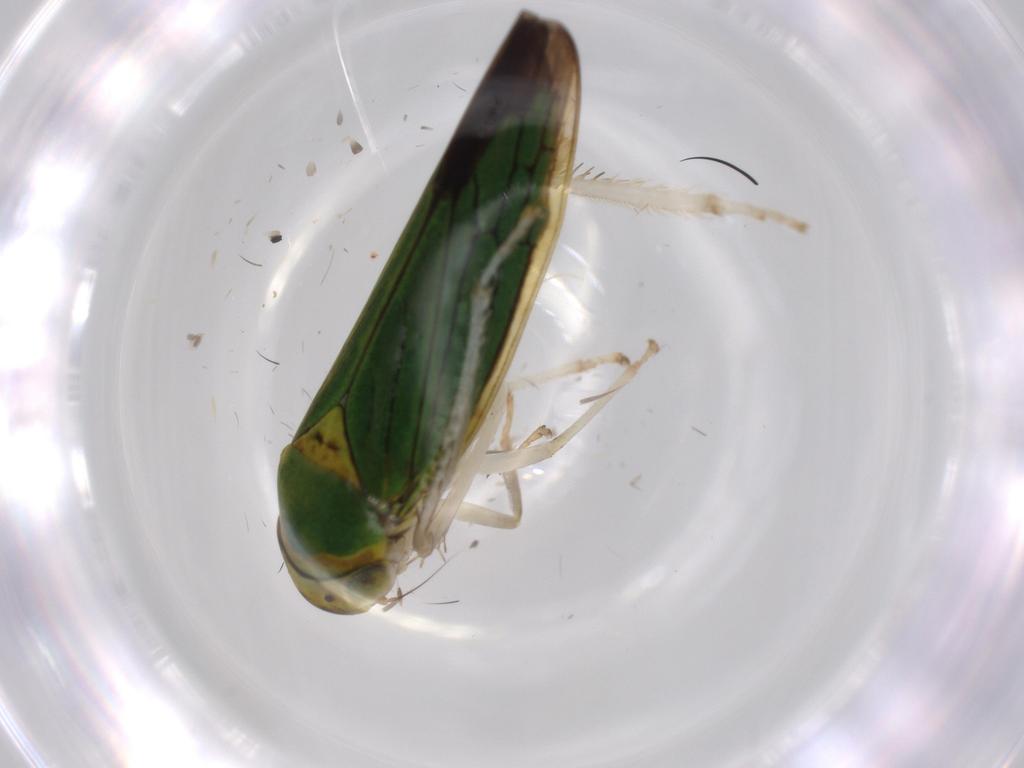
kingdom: Animalia
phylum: Arthropoda
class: Insecta
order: Hemiptera
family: Cicadellidae
